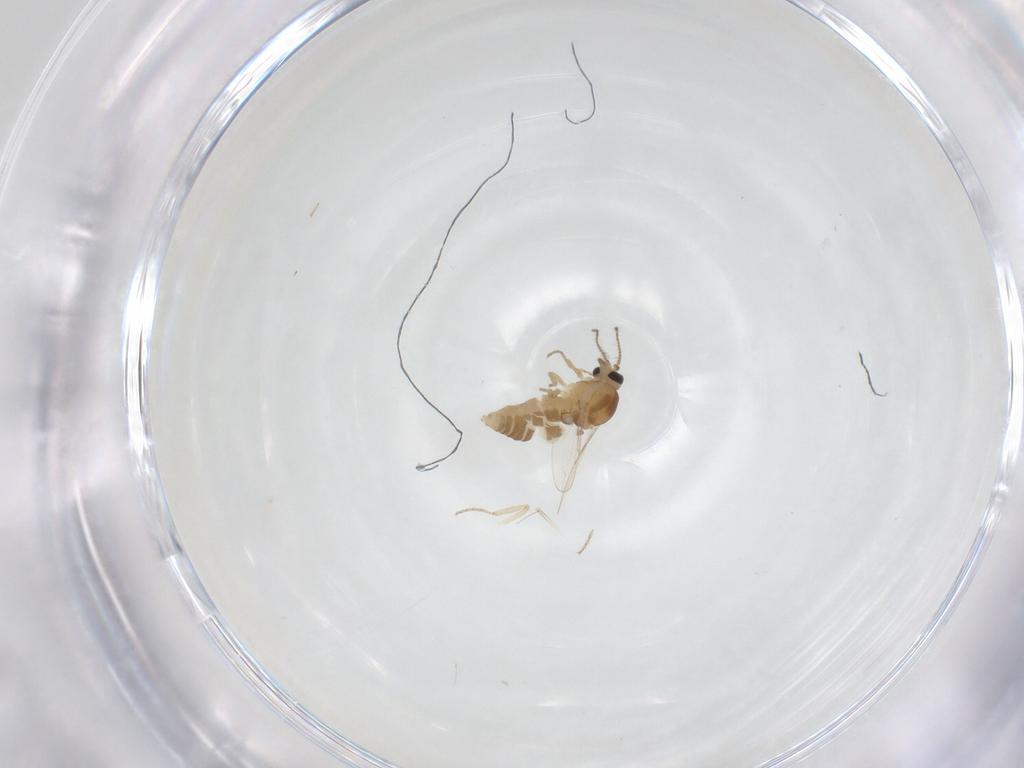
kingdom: Animalia
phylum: Arthropoda
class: Insecta
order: Diptera
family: Ceratopogonidae
